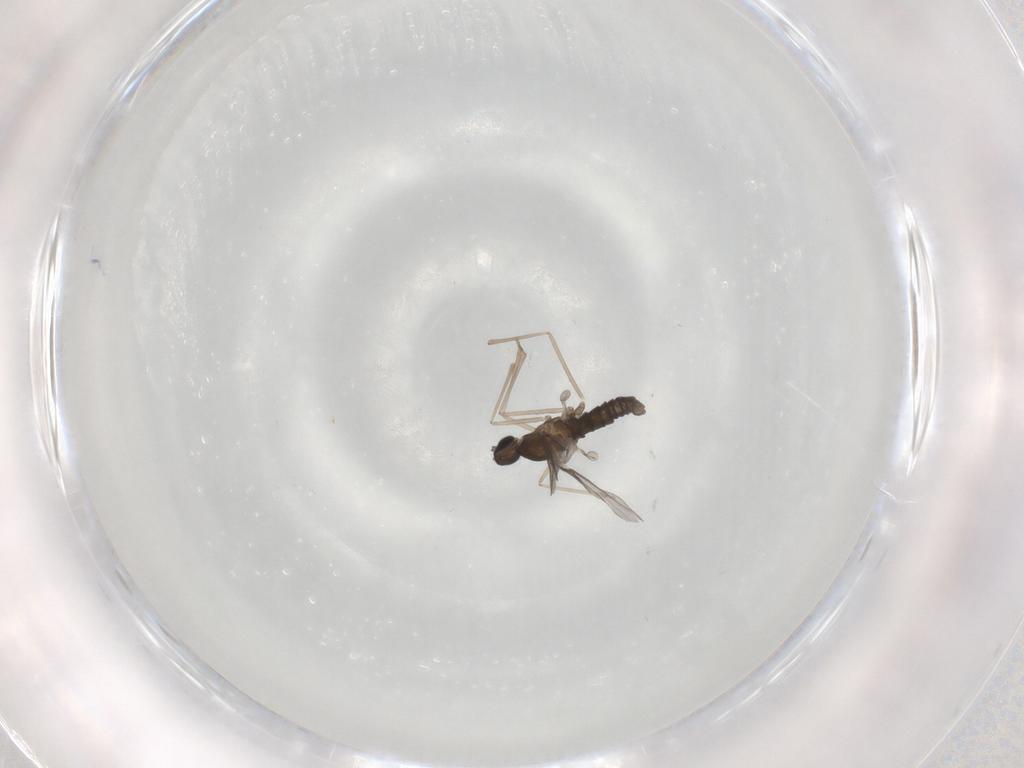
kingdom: Animalia
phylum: Arthropoda
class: Insecta
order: Diptera
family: Cecidomyiidae
